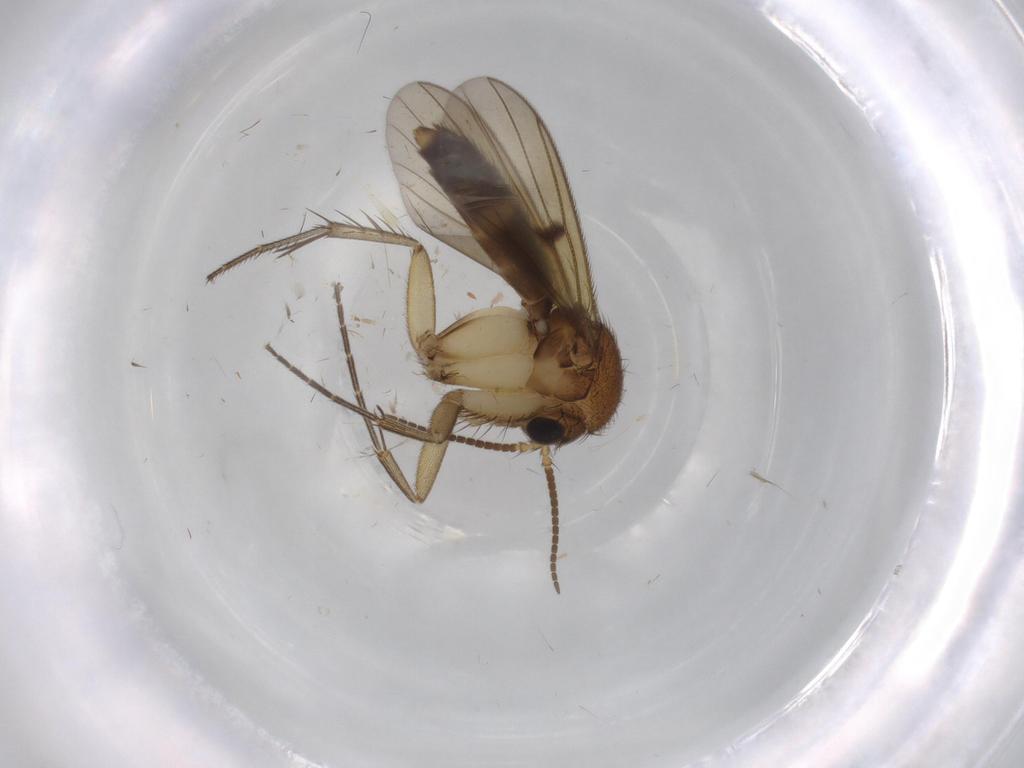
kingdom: Animalia
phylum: Arthropoda
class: Insecta
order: Diptera
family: Mycetophilidae
